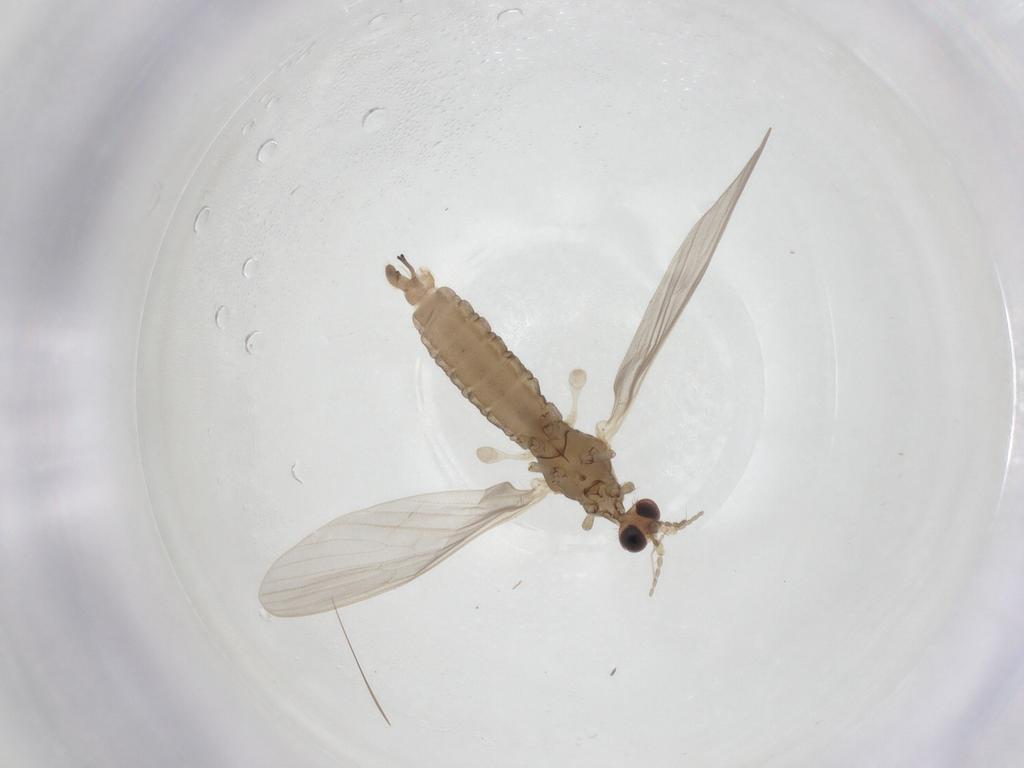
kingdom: Animalia
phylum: Arthropoda
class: Insecta
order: Diptera
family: Limoniidae
